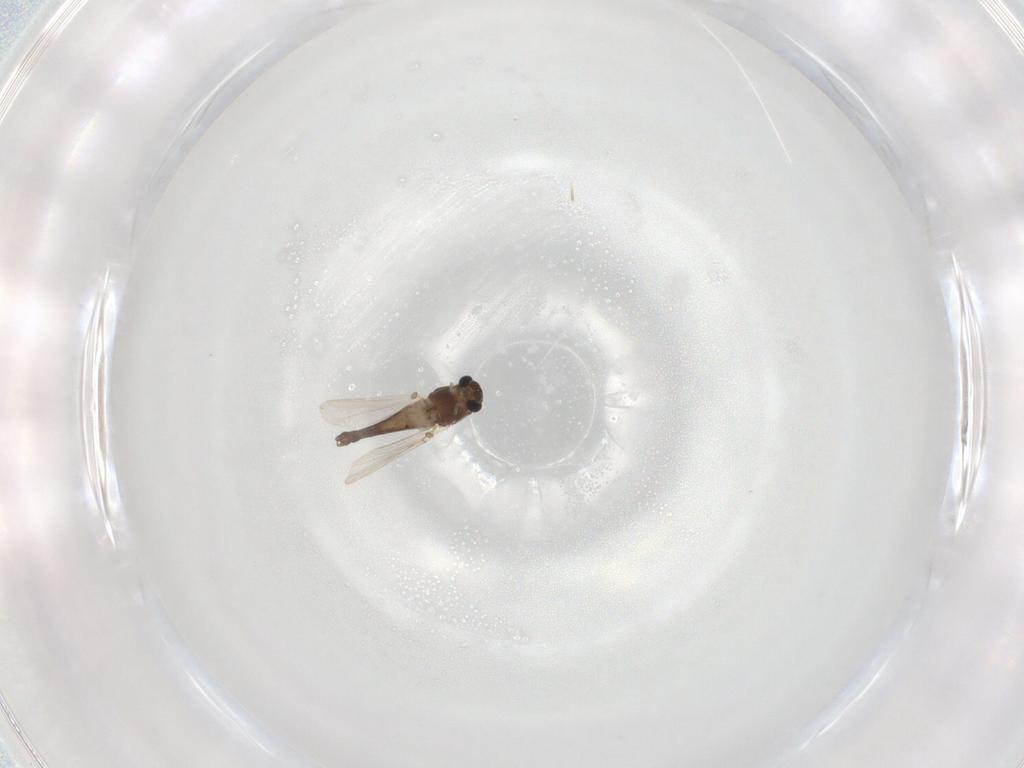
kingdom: Animalia
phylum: Arthropoda
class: Insecta
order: Diptera
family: Chironomidae
